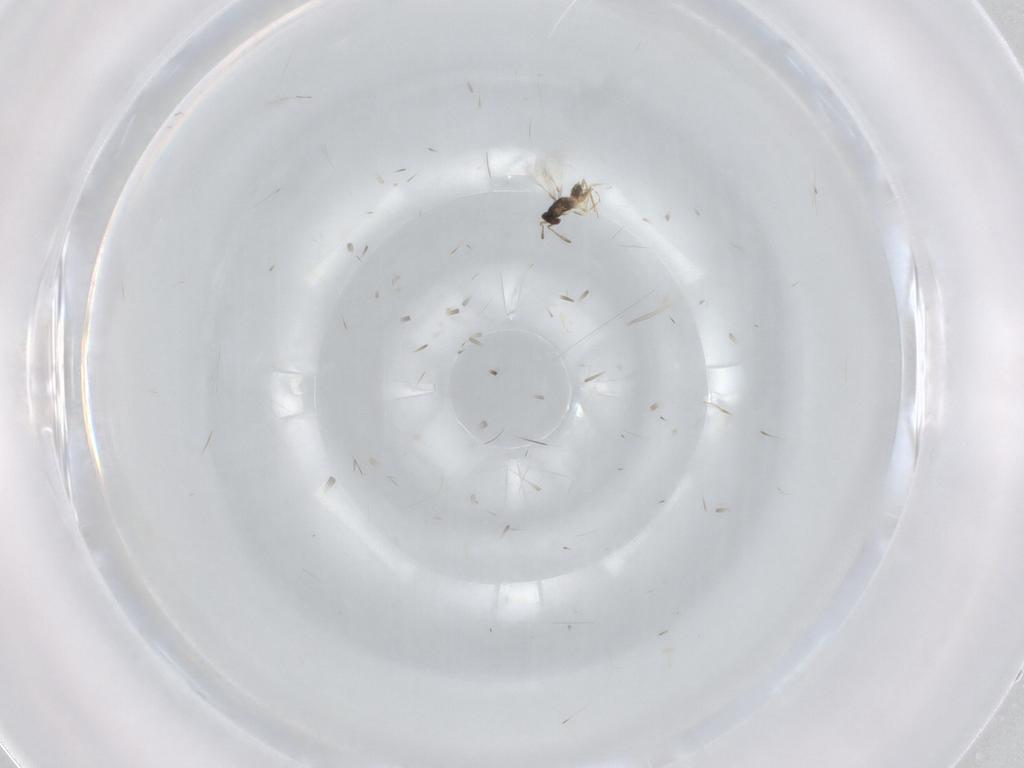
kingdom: Animalia
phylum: Arthropoda
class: Insecta
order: Hymenoptera
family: Mymaridae
